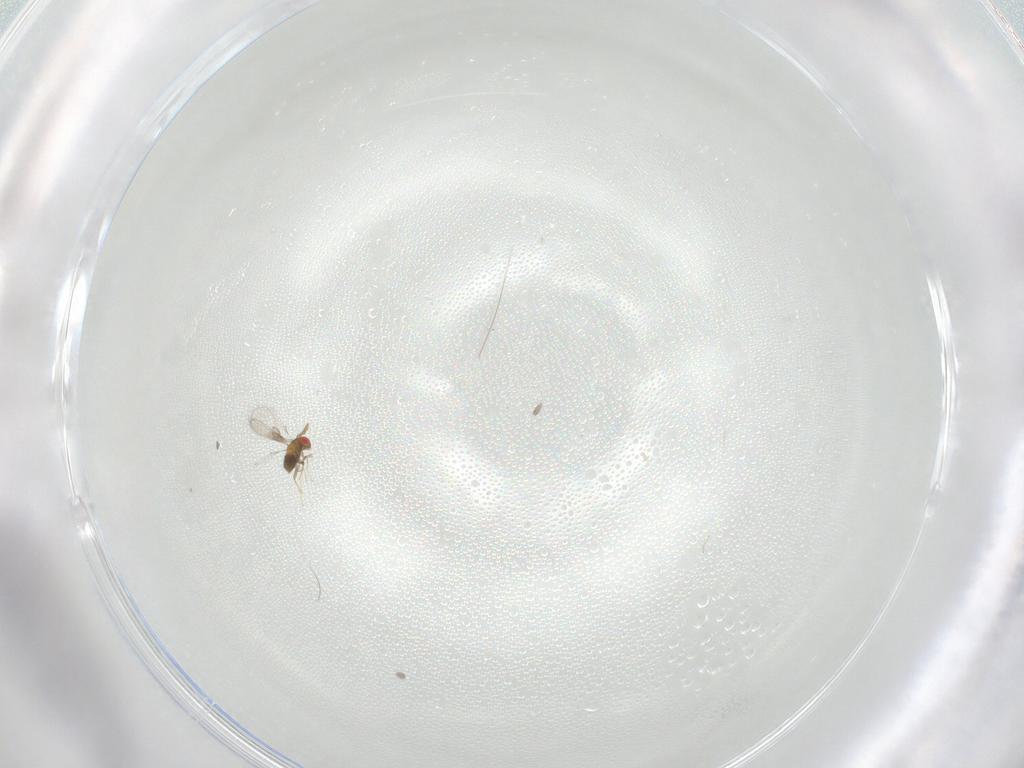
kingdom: Animalia
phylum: Arthropoda
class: Insecta
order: Hymenoptera
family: Trichogrammatidae
